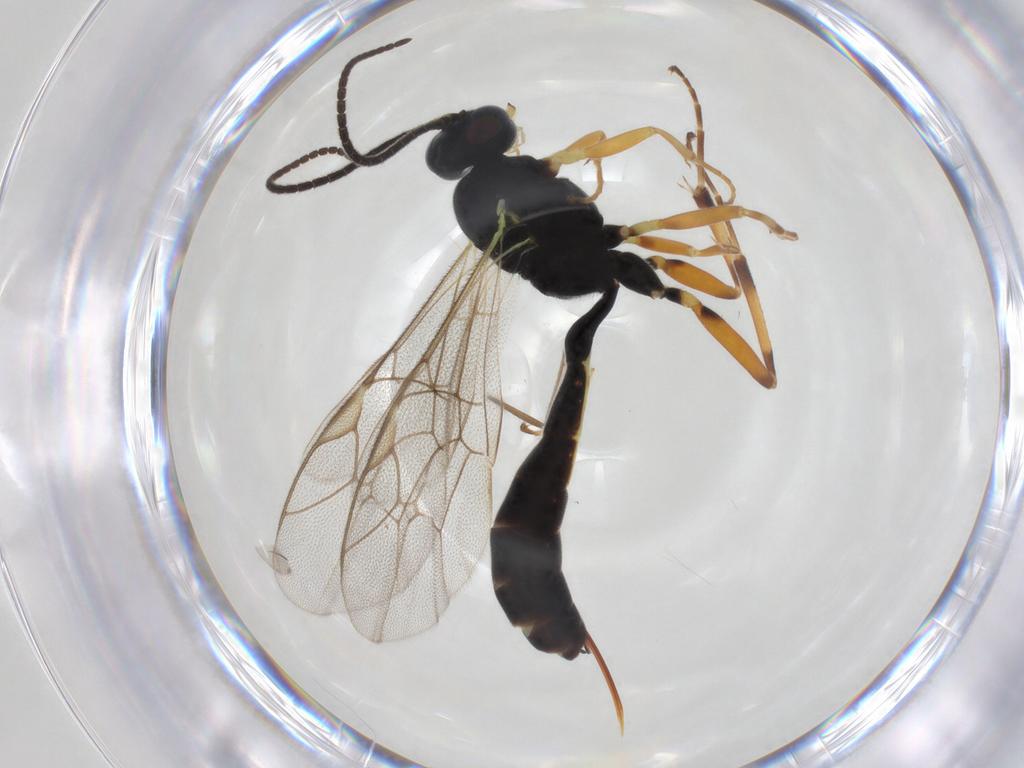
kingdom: Animalia
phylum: Arthropoda
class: Insecta
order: Hymenoptera
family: Ichneumonidae
